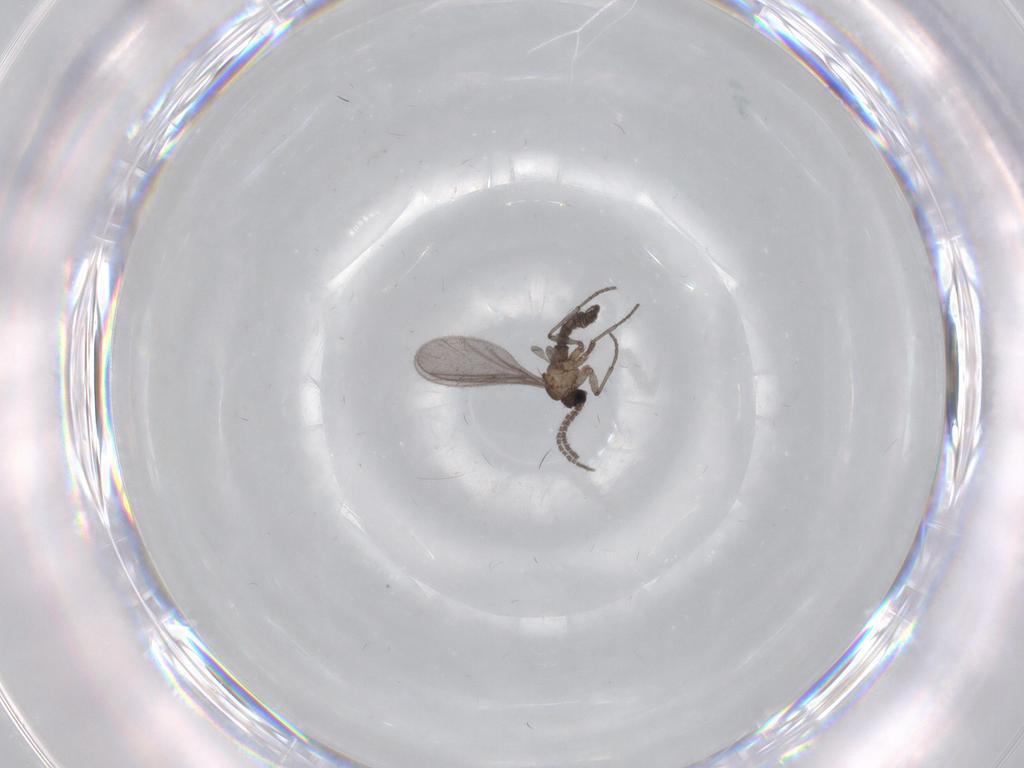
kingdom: Animalia
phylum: Arthropoda
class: Insecta
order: Diptera
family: Sciaridae
